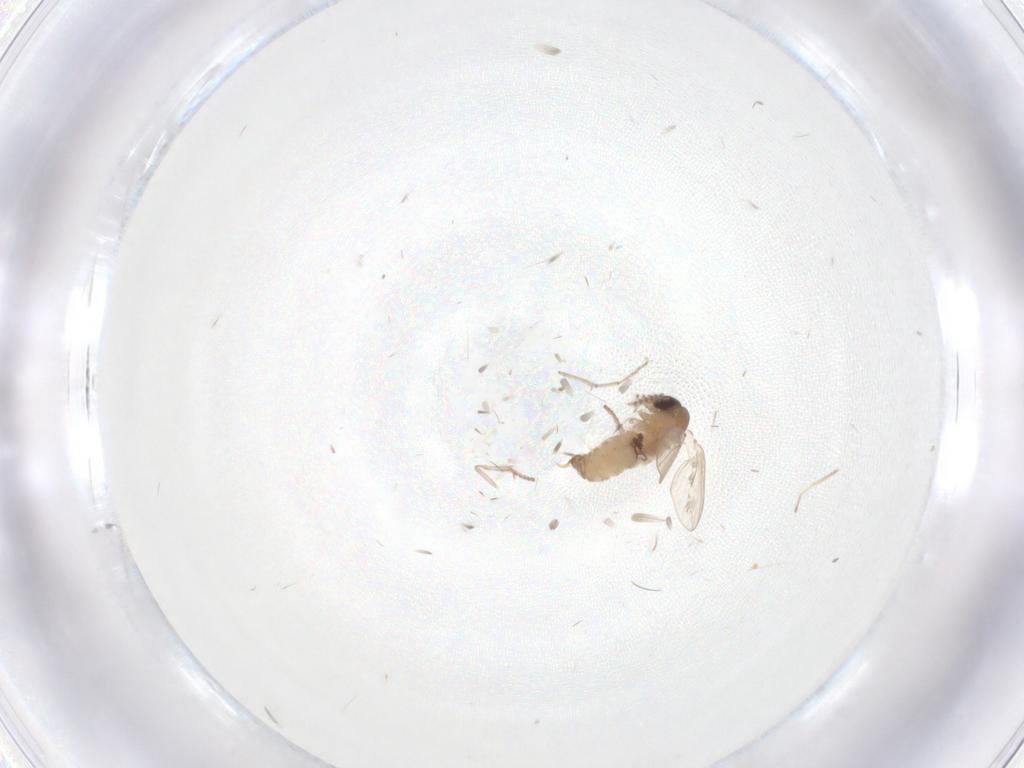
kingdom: Animalia
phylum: Arthropoda
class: Insecta
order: Diptera
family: Psychodidae
